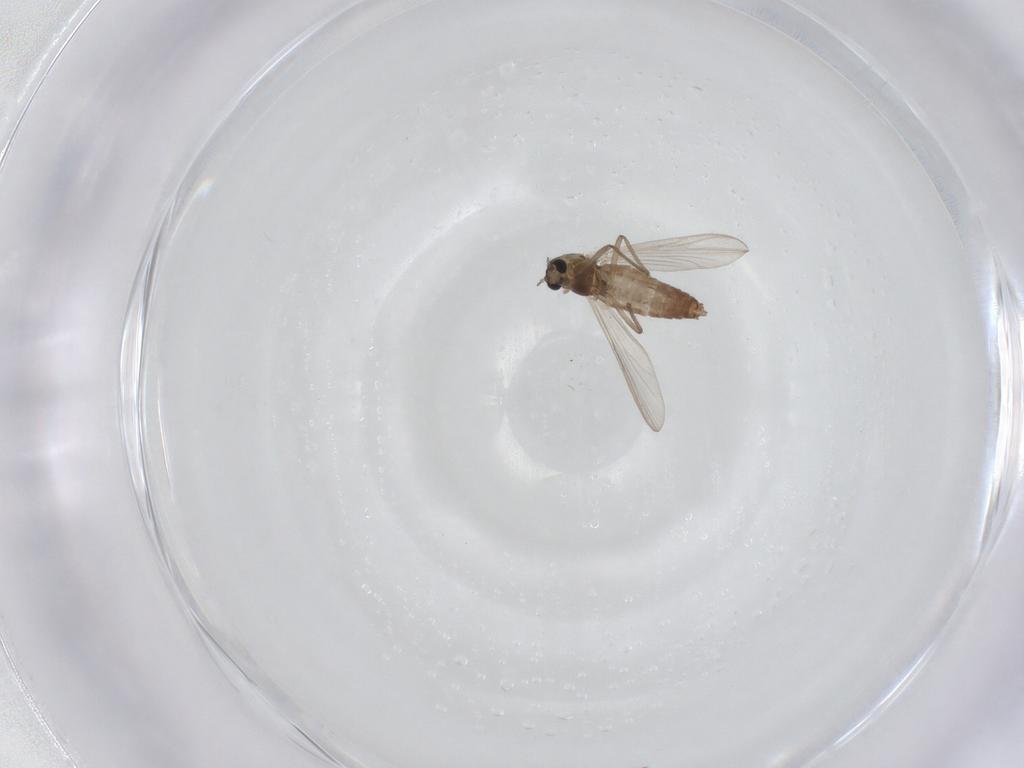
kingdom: Animalia
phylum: Arthropoda
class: Insecta
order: Diptera
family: Chironomidae
